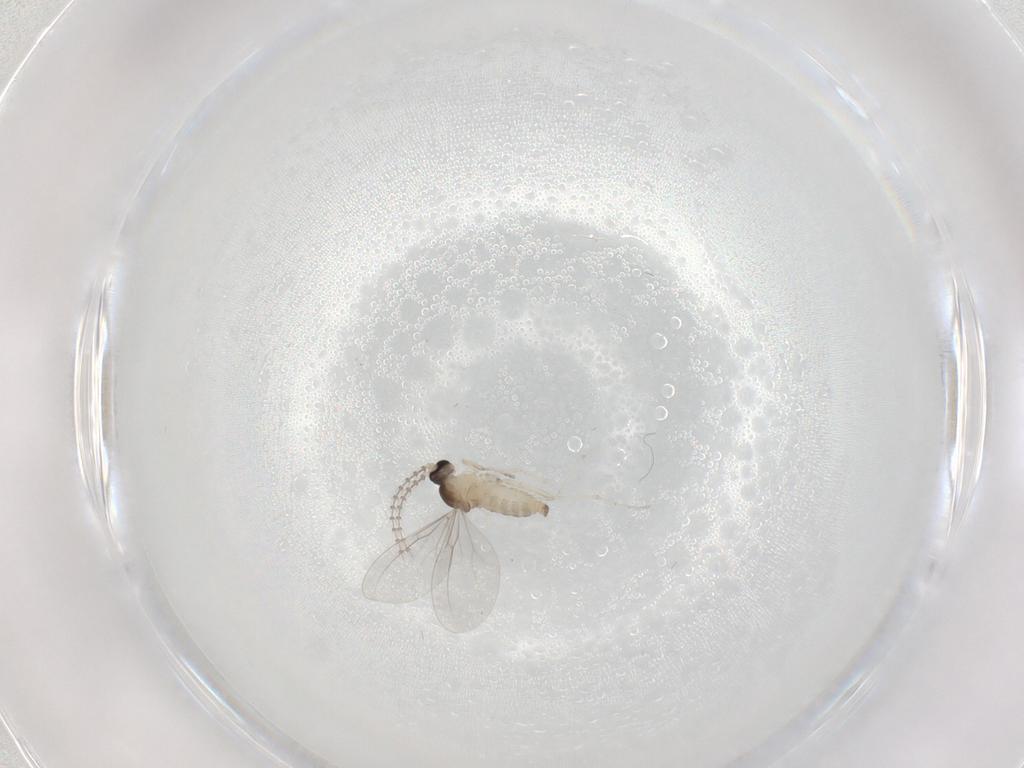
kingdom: Animalia
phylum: Arthropoda
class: Insecta
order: Diptera
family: Cecidomyiidae
